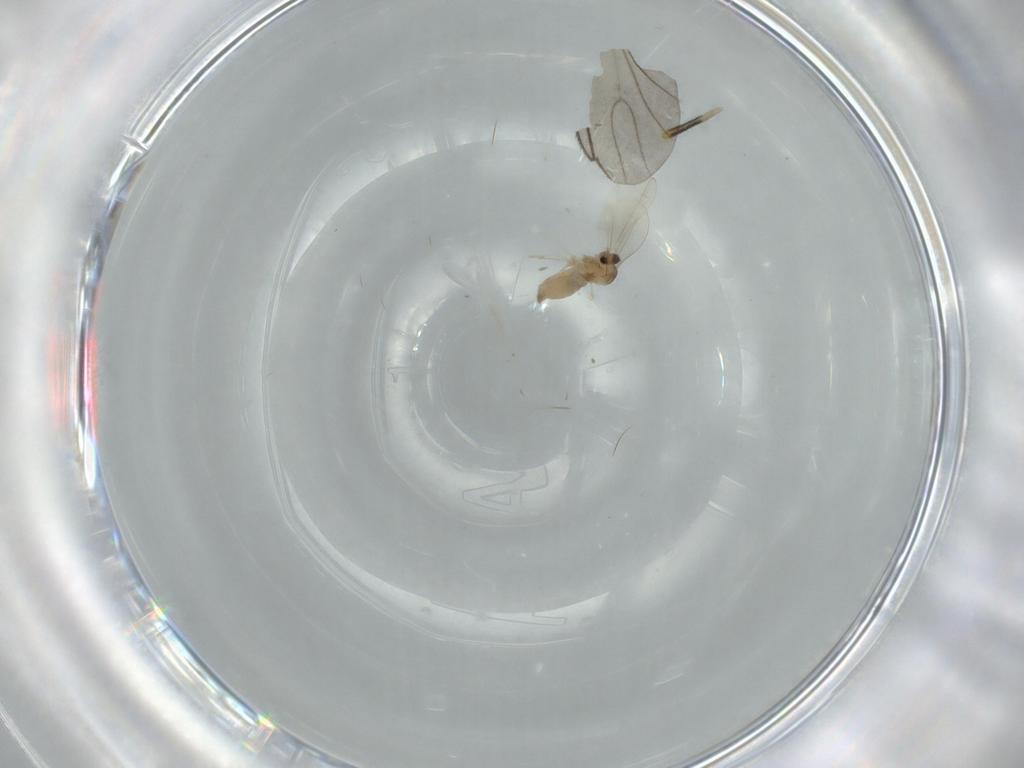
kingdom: Animalia
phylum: Arthropoda
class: Insecta
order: Diptera
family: Cecidomyiidae
